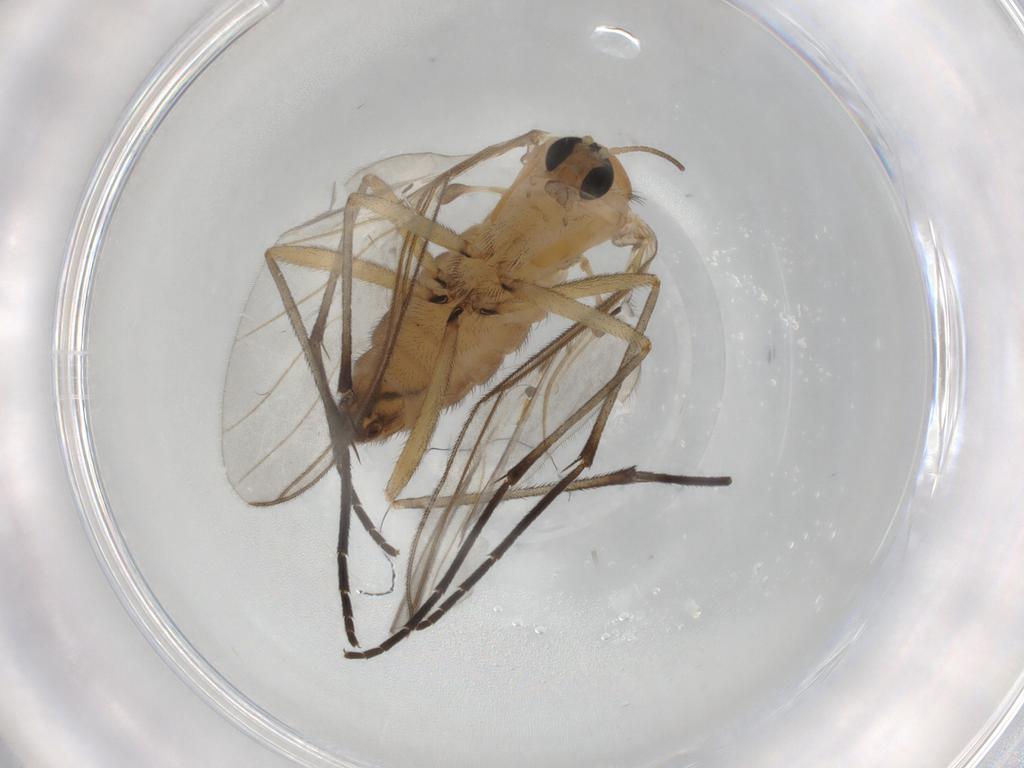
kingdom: Animalia
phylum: Arthropoda
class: Insecta
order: Diptera
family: Sciaridae
